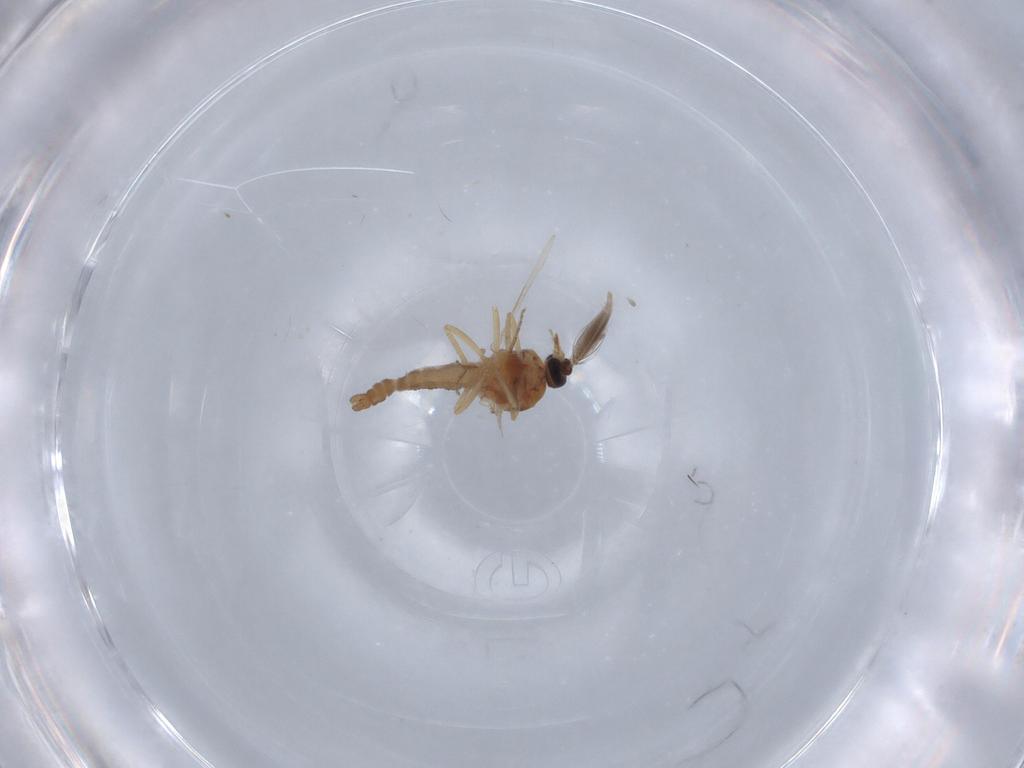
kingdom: Animalia
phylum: Arthropoda
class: Insecta
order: Diptera
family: Ceratopogonidae
